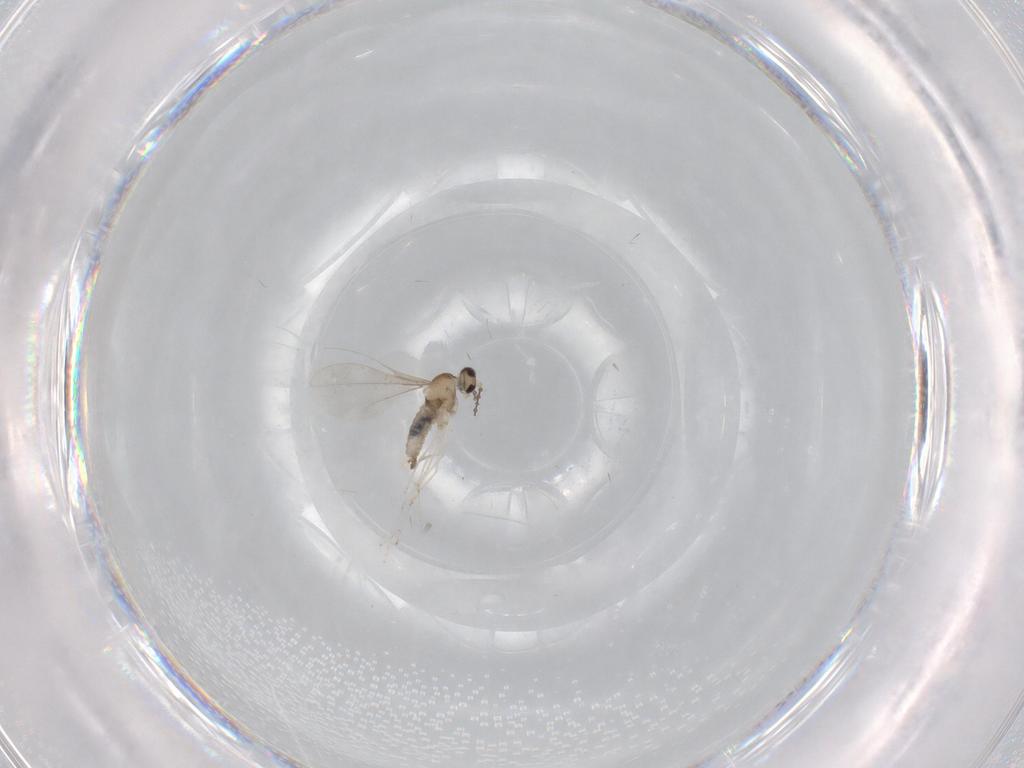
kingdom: Animalia
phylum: Arthropoda
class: Insecta
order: Diptera
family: Cecidomyiidae
